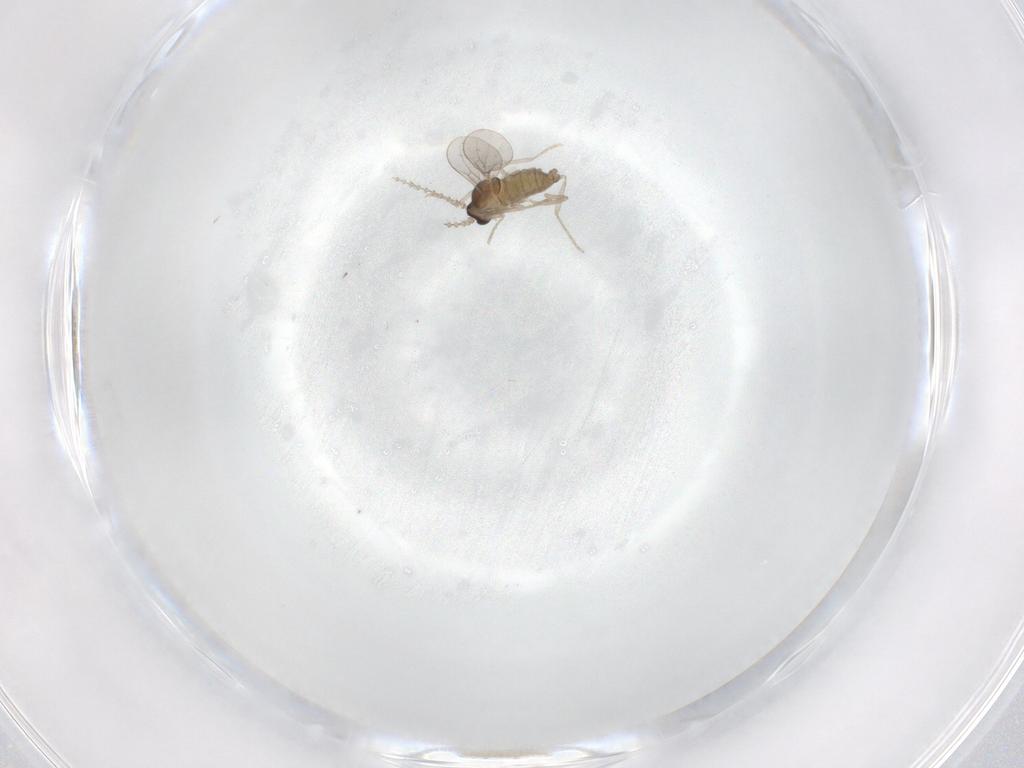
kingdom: Animalia
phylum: Arthropoda
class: Insecta
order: Diptera
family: Cecidomyiidae
